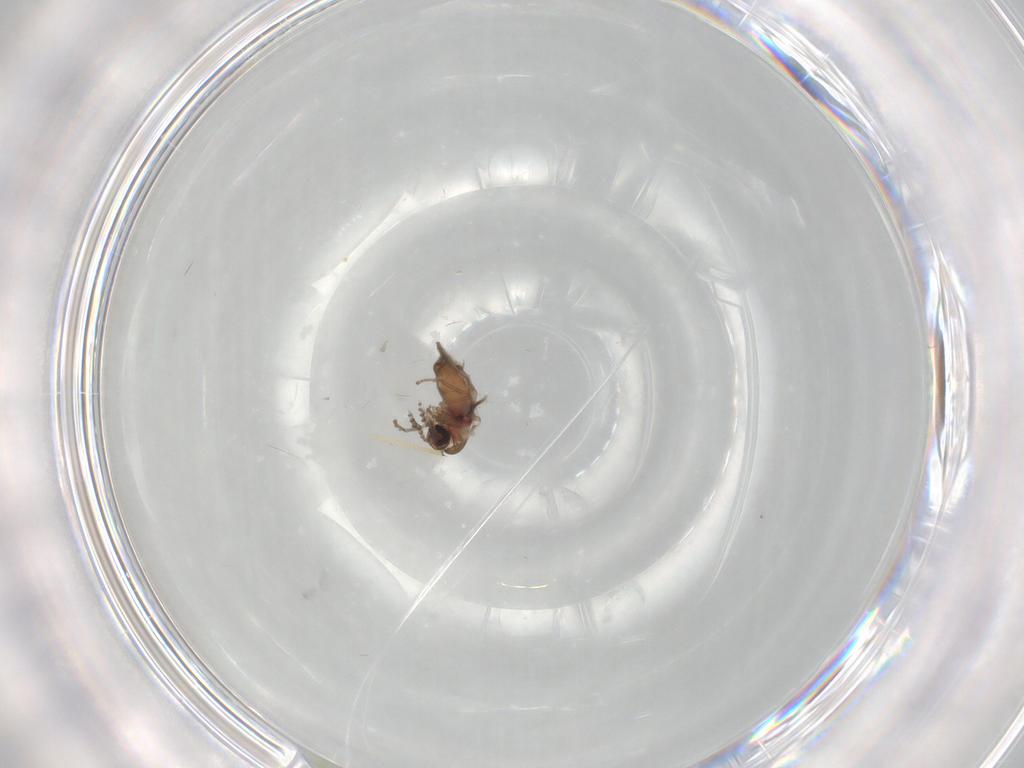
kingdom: Animalia
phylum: Arthropoda
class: Insecta
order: Diptera
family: Psychodidae
